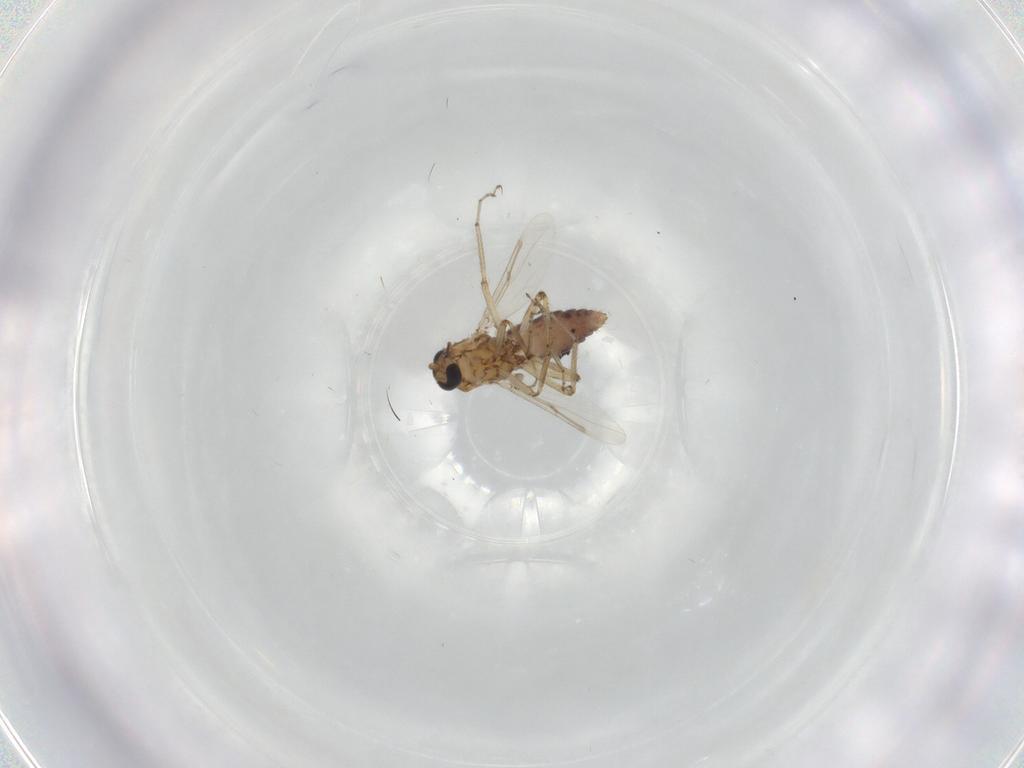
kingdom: Animalia
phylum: Arthropoda
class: Insecta
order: Diptera
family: Ceratopogonidae
